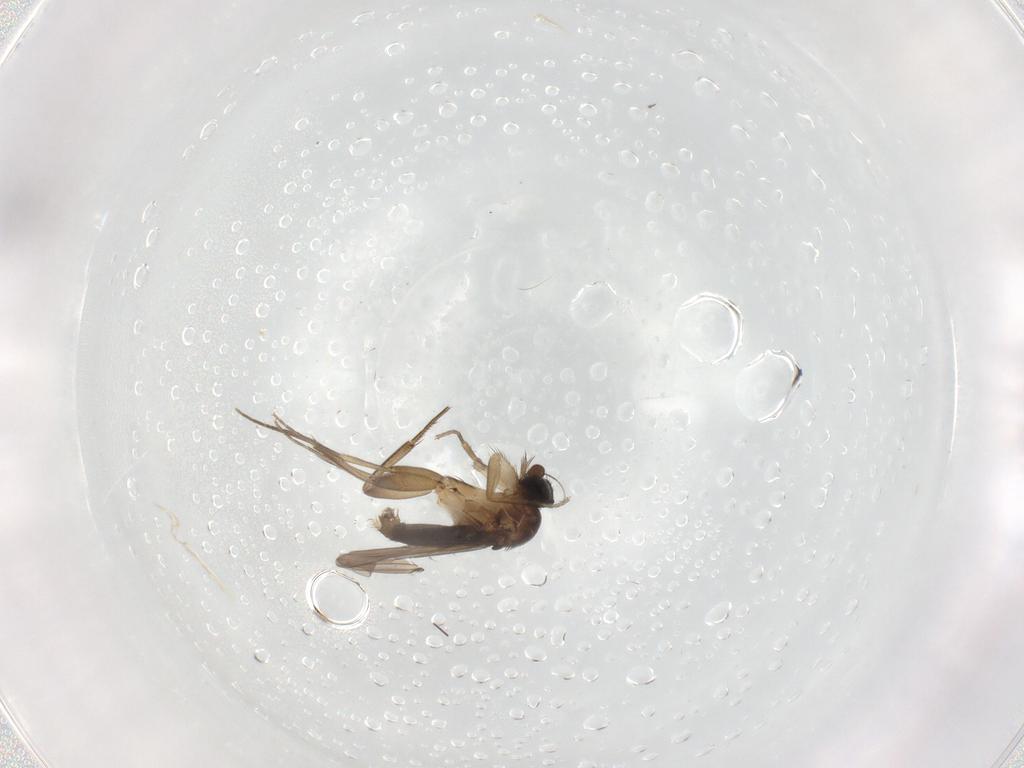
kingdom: Animalia
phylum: Arthropoda
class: Insecta
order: Diptera
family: Phoridae
